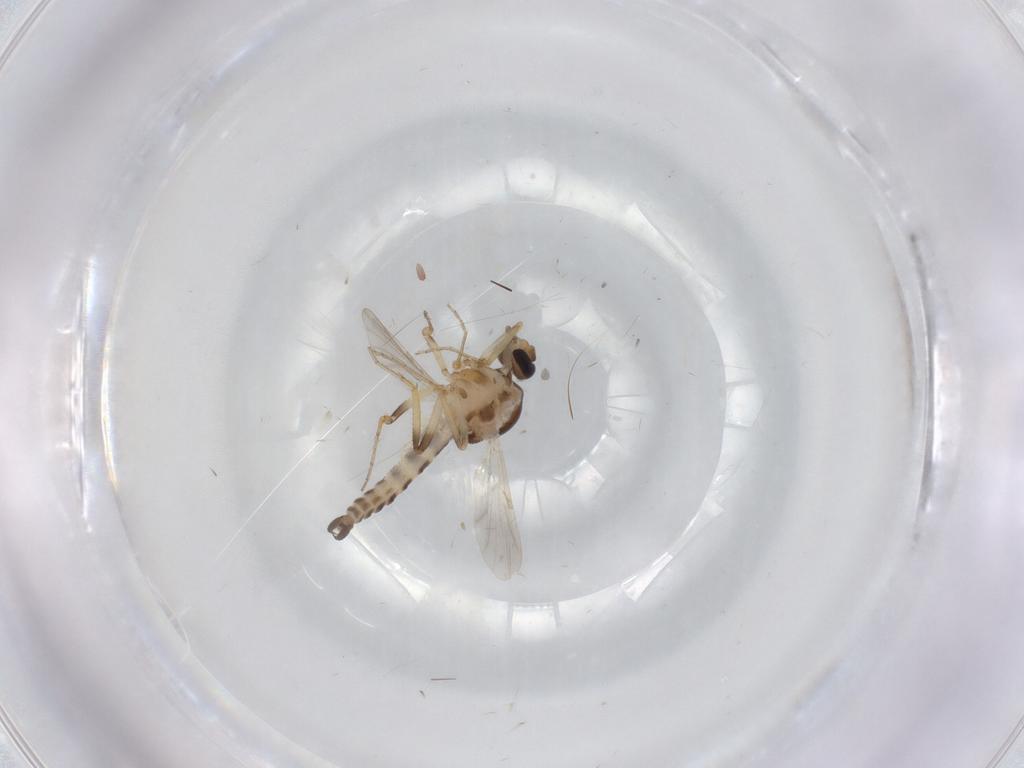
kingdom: Animalia
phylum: Arthropoda
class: Insecta
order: Diptera
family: Ceratopogonidae
